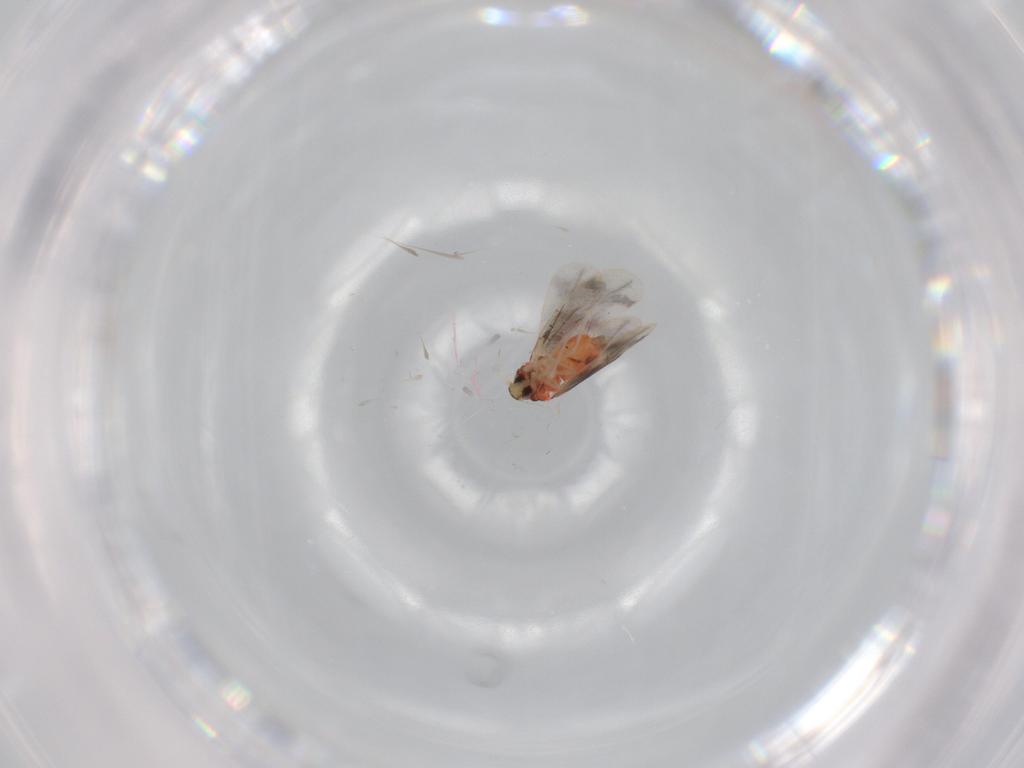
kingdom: Animalia
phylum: Arthropoda
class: Insecta
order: Hemiptera
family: Aleyrodidae
